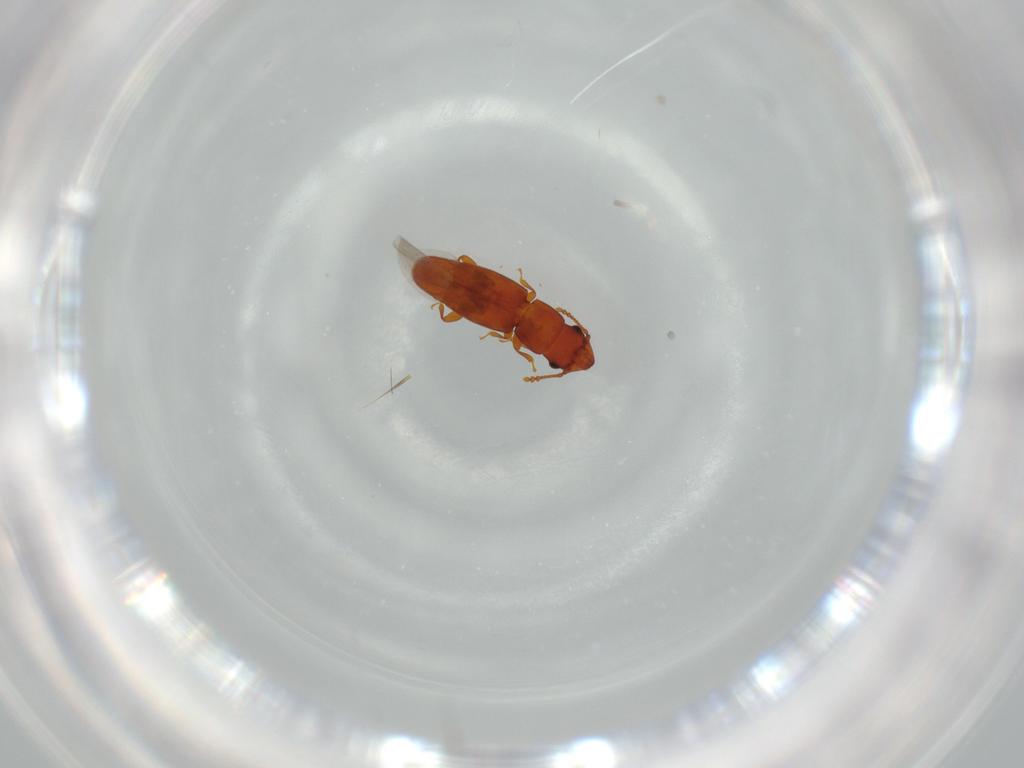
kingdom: Animalia
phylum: Arthropoda
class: Insecta
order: Coleoptera
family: Smicripidae
